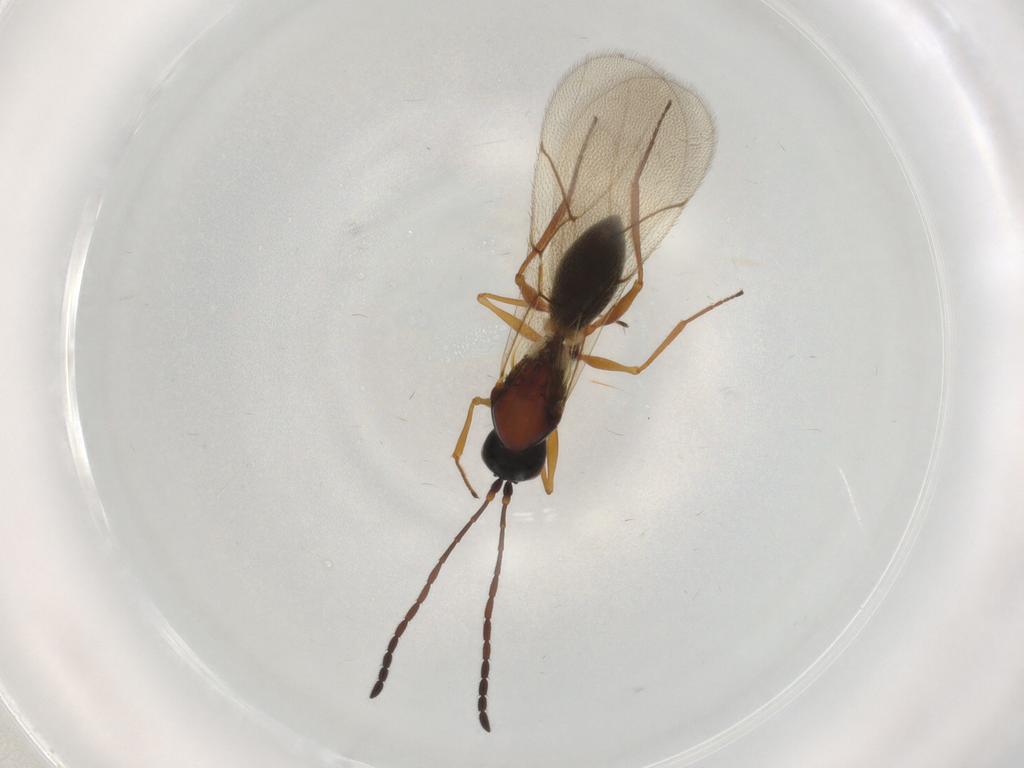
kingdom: Animalia
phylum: Arthropoda
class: Insecta
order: Hymenoptera
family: Figitidae
